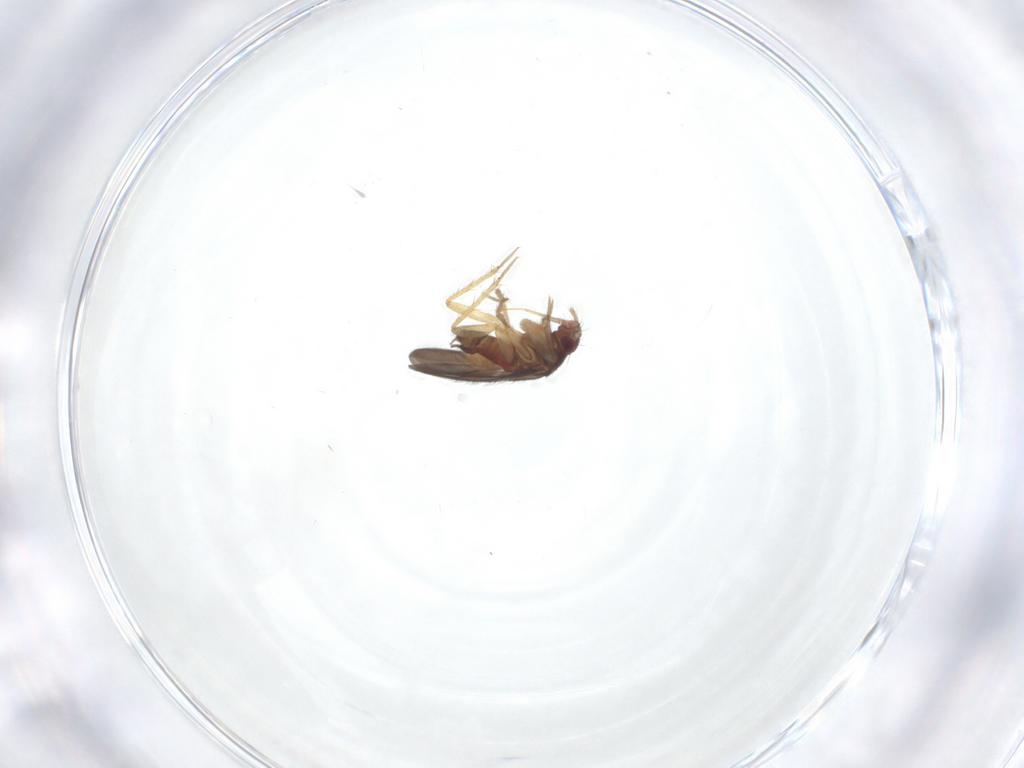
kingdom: Animalia
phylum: Arthropoda
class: Insecta
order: Hemiptera
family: Ceratocombidae
